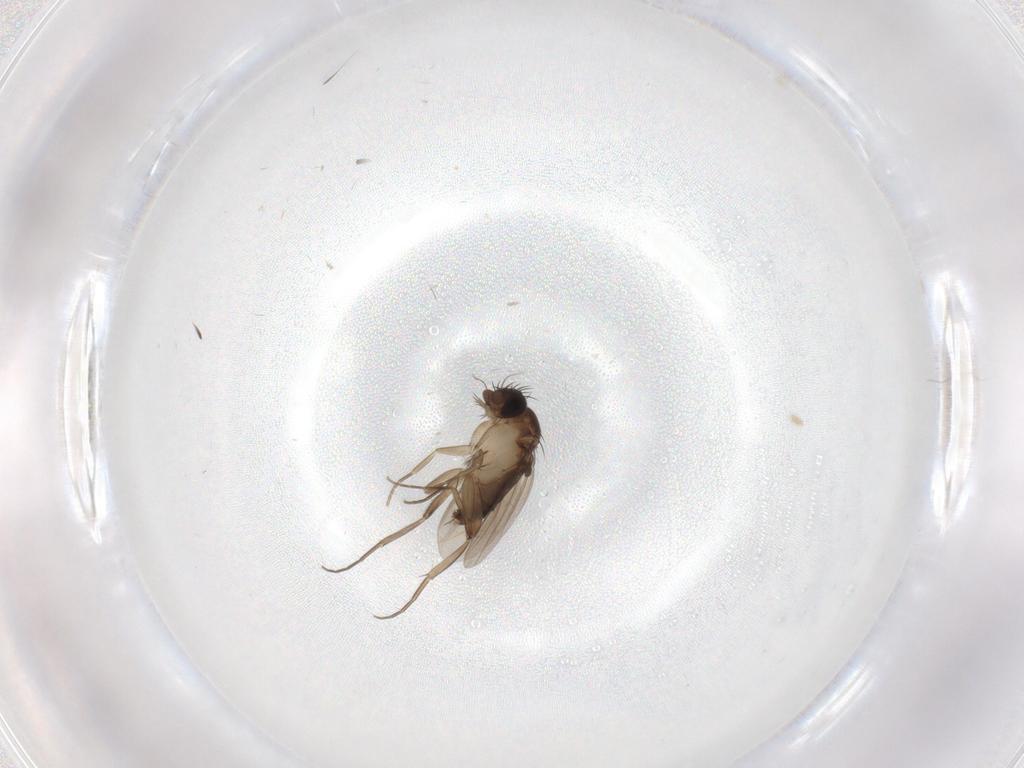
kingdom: Animalia
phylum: Arthropoda
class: Insecta
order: Diptera
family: Phoridae
